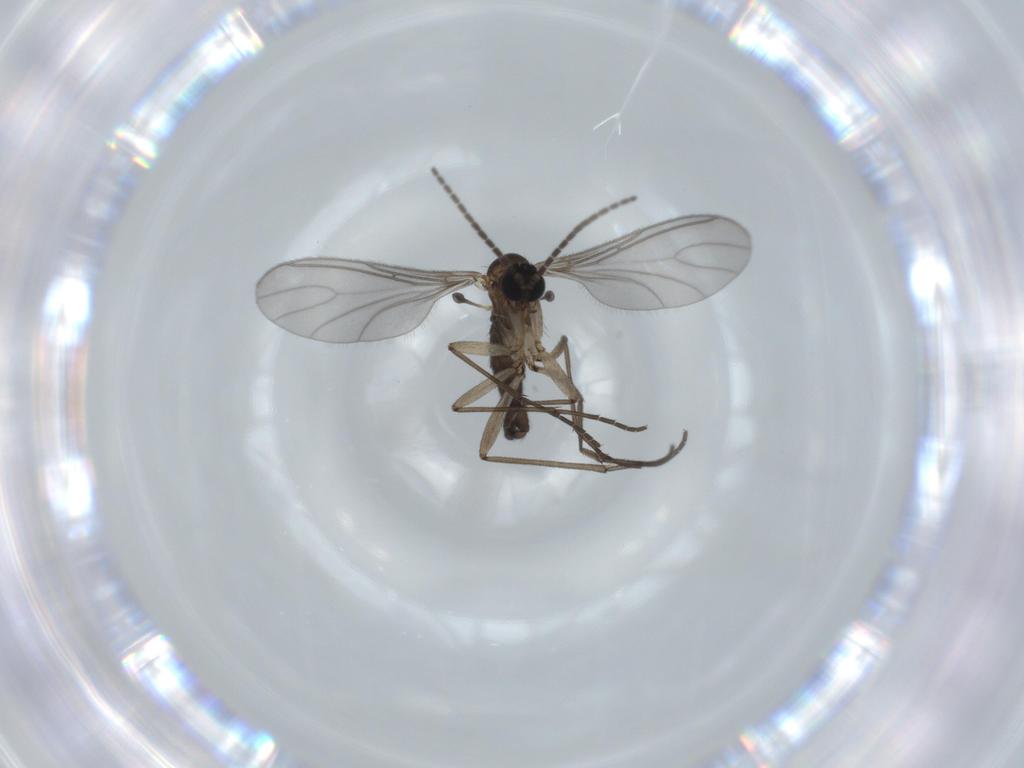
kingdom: Animalia
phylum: Arthropoda
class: Insecta
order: Diptera
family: Sciaridae
